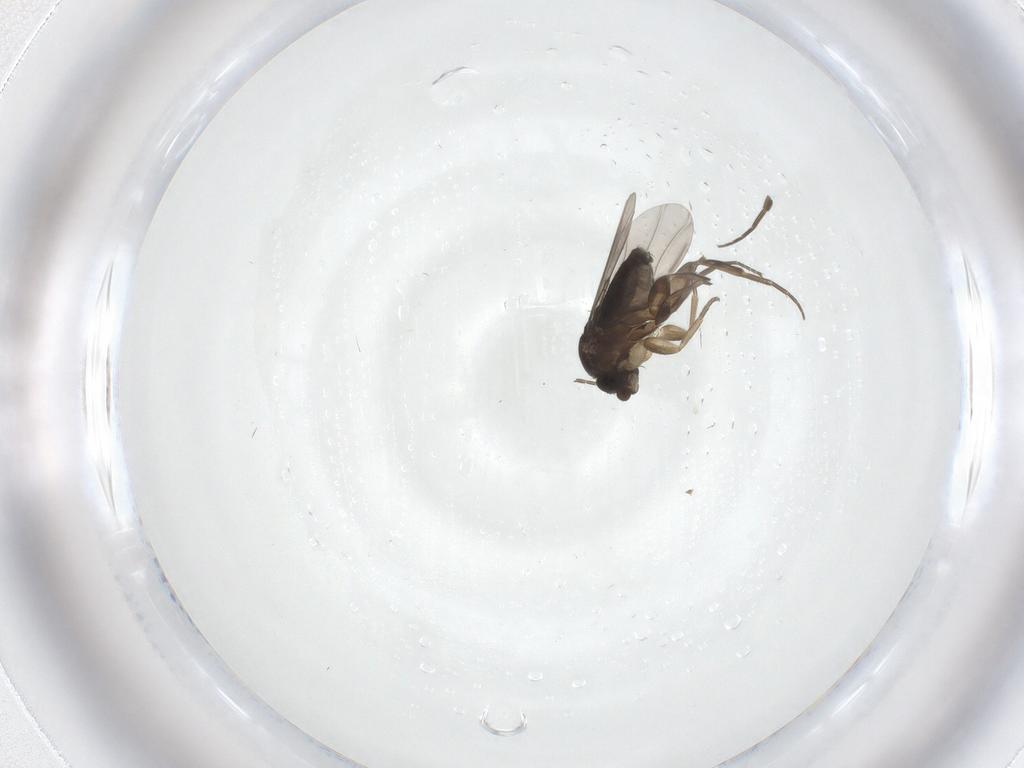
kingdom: Animalia
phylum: Arthropoda
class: Insecta
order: Diptera
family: Phoridae
